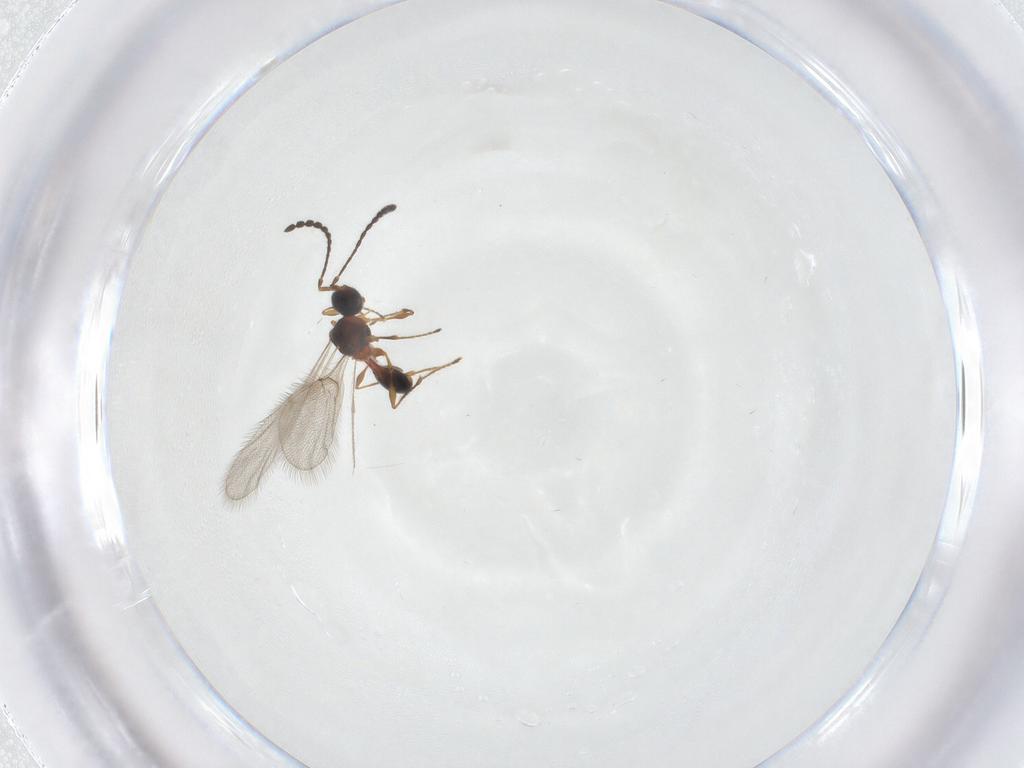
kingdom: Animalia
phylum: Arthropoda
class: Insecta
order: Hymenoptera
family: Diapriidae
